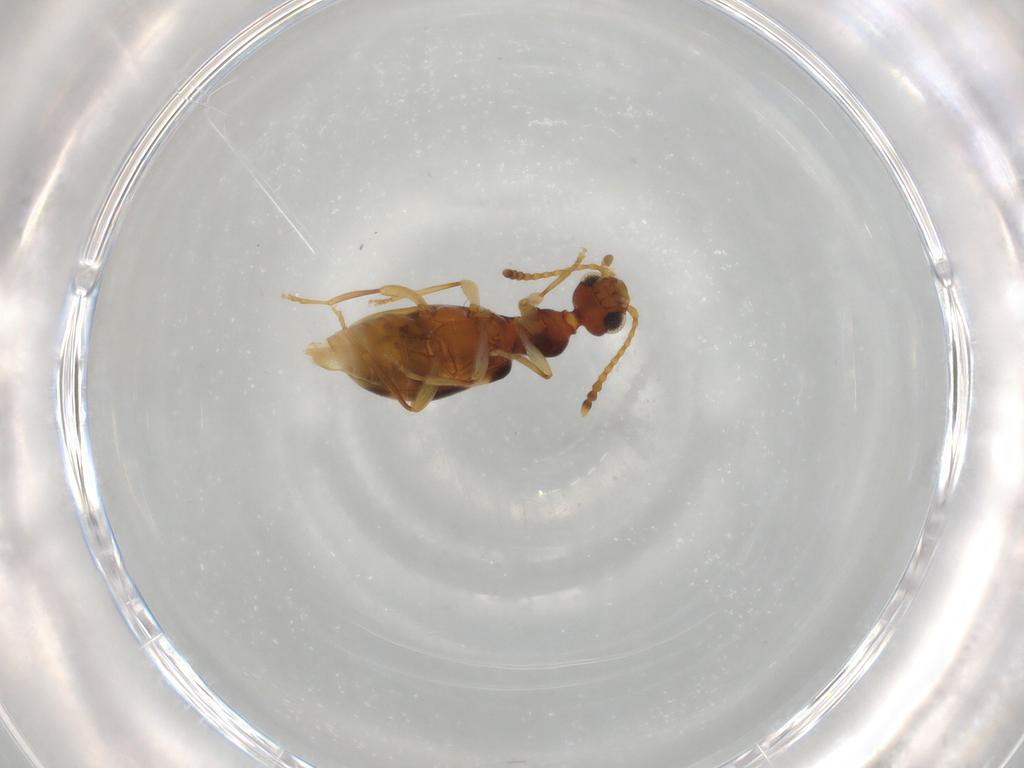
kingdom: Animalia
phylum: Arthropoda
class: Insecta
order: Coleoptera
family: Anthicidae
